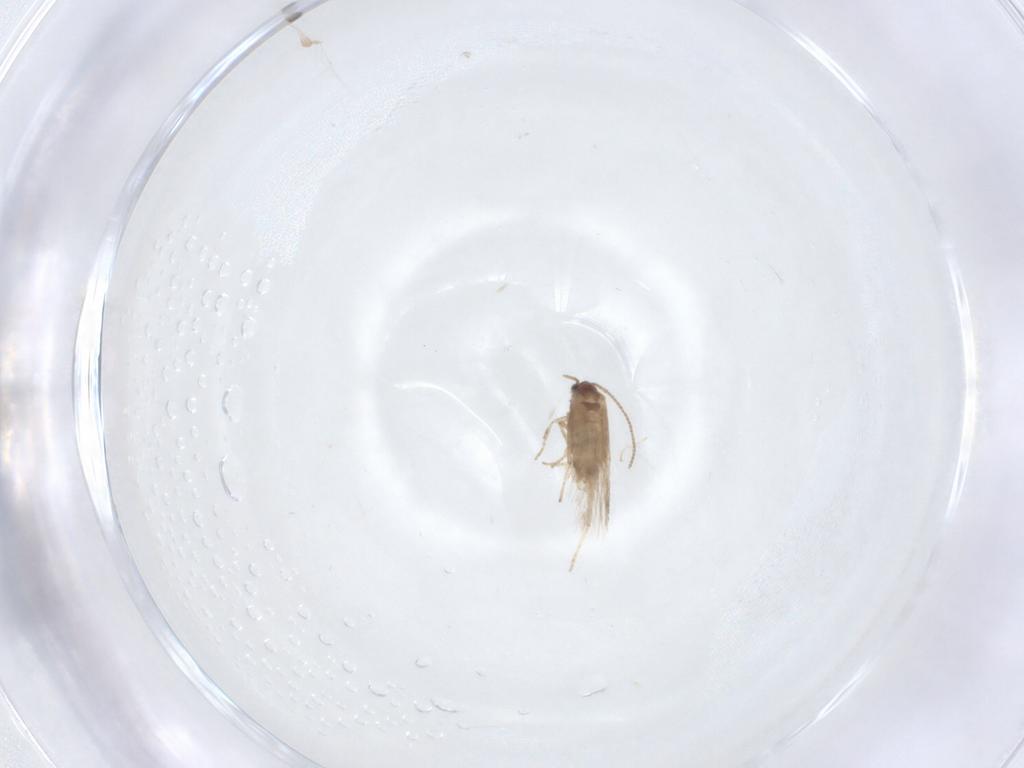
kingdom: Animalia
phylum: Arthropoda
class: Insecta
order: Lepidoptera
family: Nepticulidae
